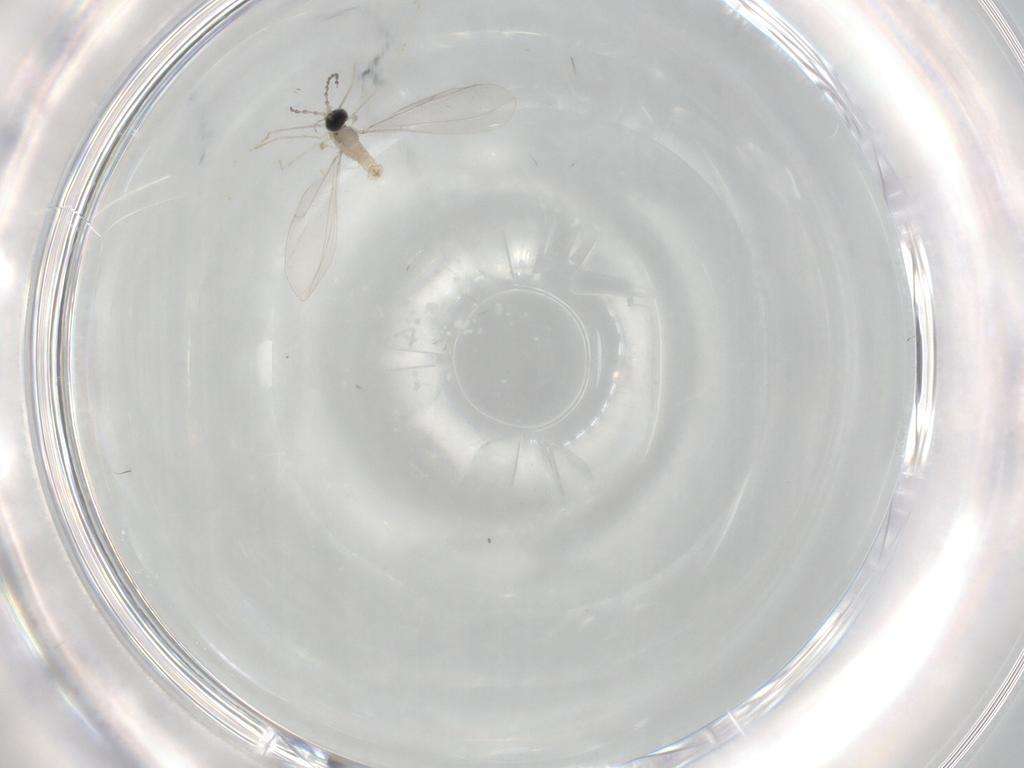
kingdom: Animalia
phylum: Arthropoda
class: Insecta
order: Diptera
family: Cecidomyiidae
